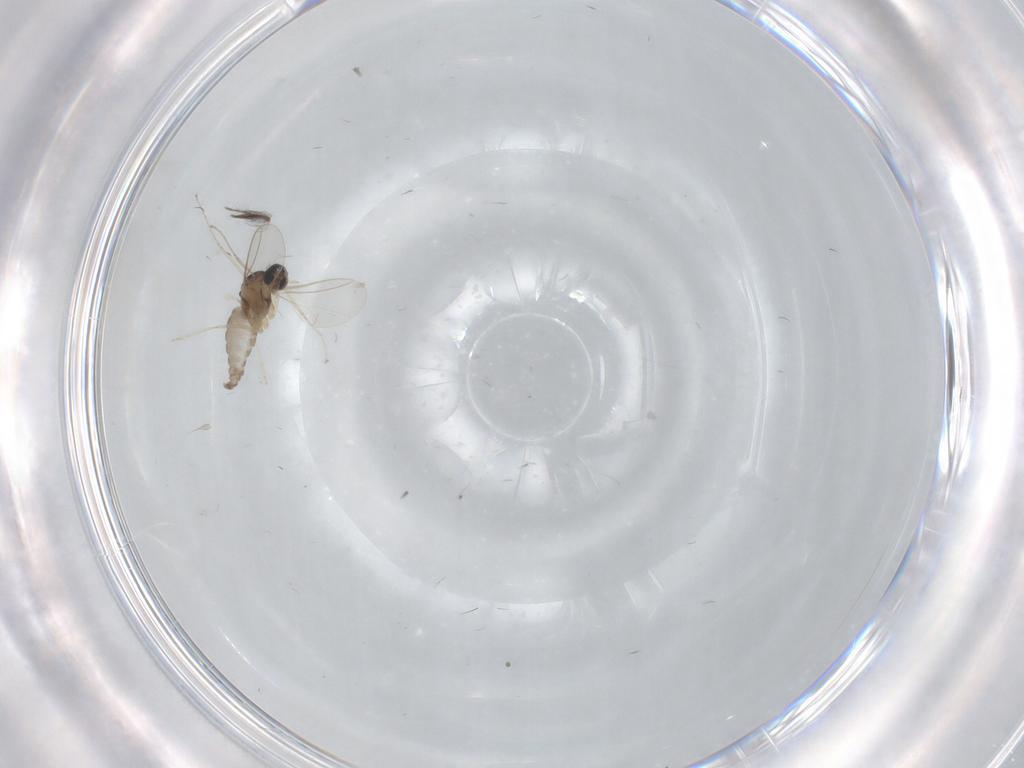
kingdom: Animalia
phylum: Arthropoda
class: Insecta
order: Diptera
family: Cecidomyiidae
